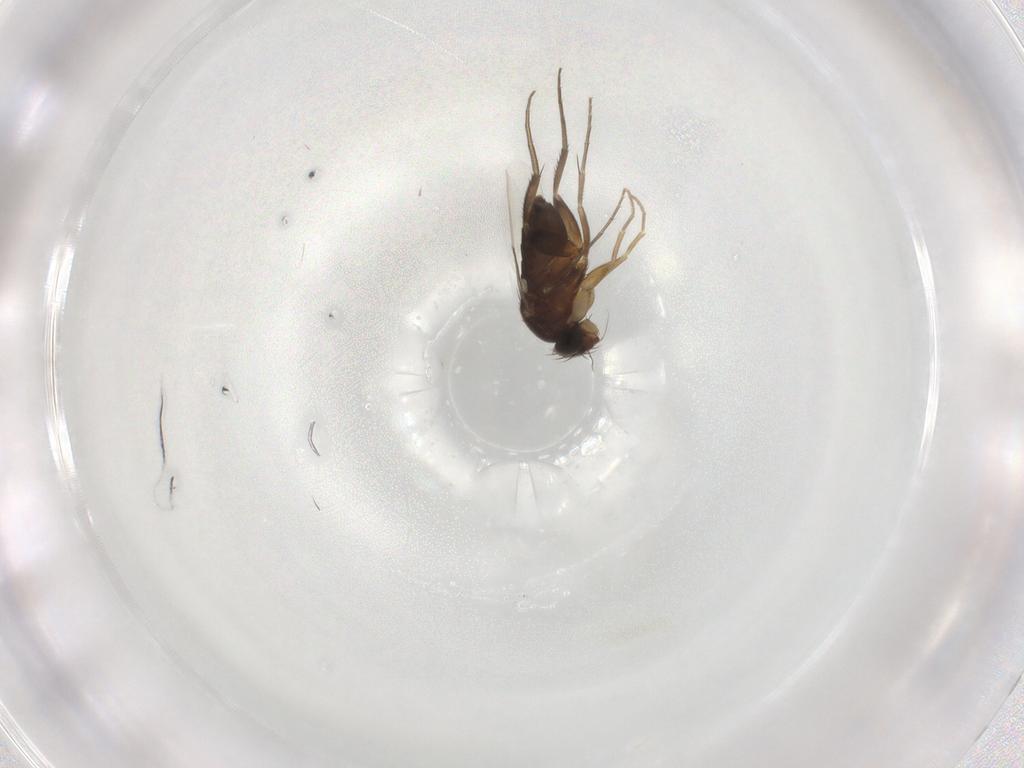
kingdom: Animalia
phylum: Arthropoda
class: Insecta
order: Diptera
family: Phoridae
